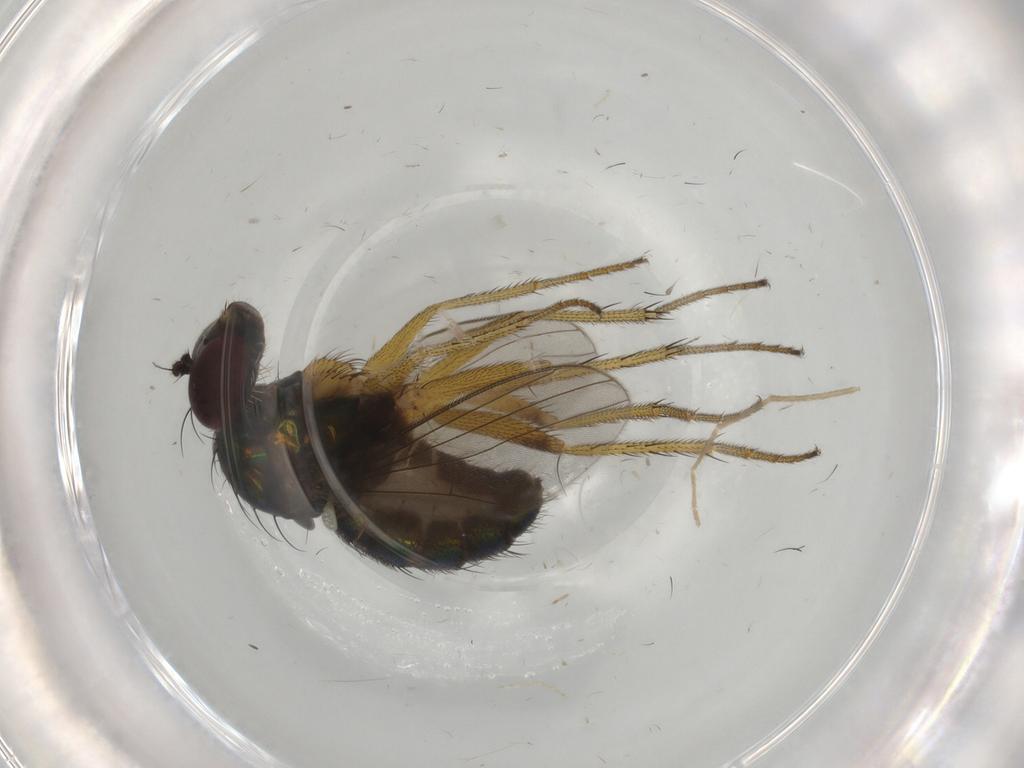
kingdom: Animalia
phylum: Arthropoda
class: Insecta
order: Diptera
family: Dolichopodidae
